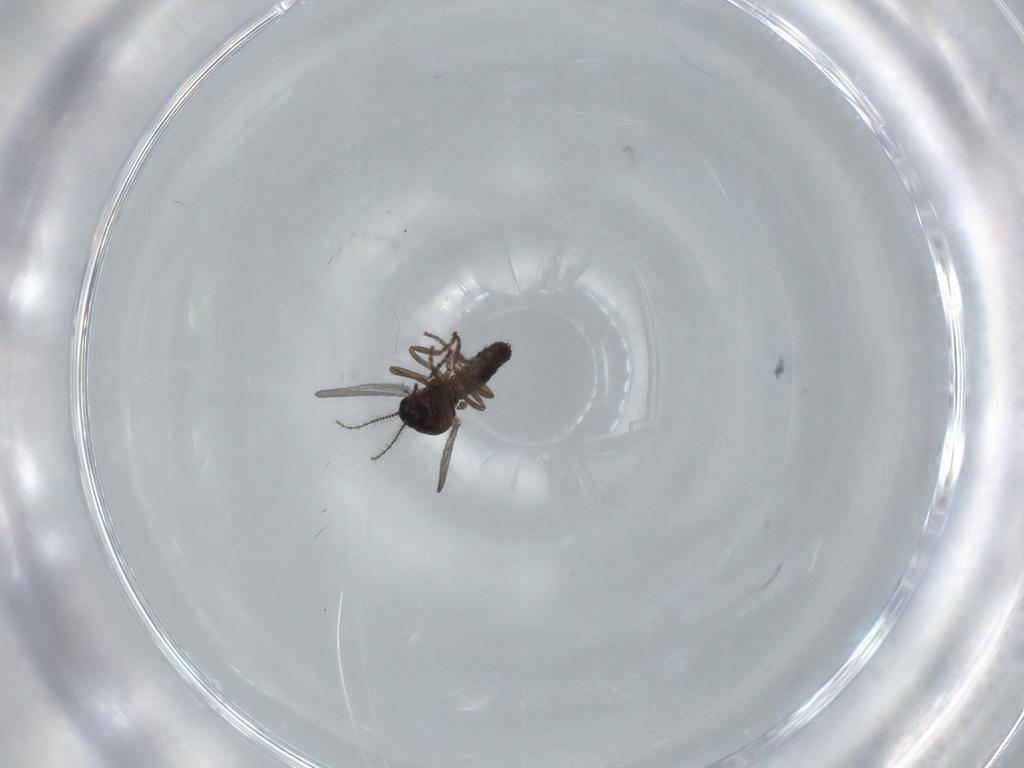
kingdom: Animalia
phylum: Arthropoda
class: Insecta
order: Diptera
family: Ceratopogonidae
